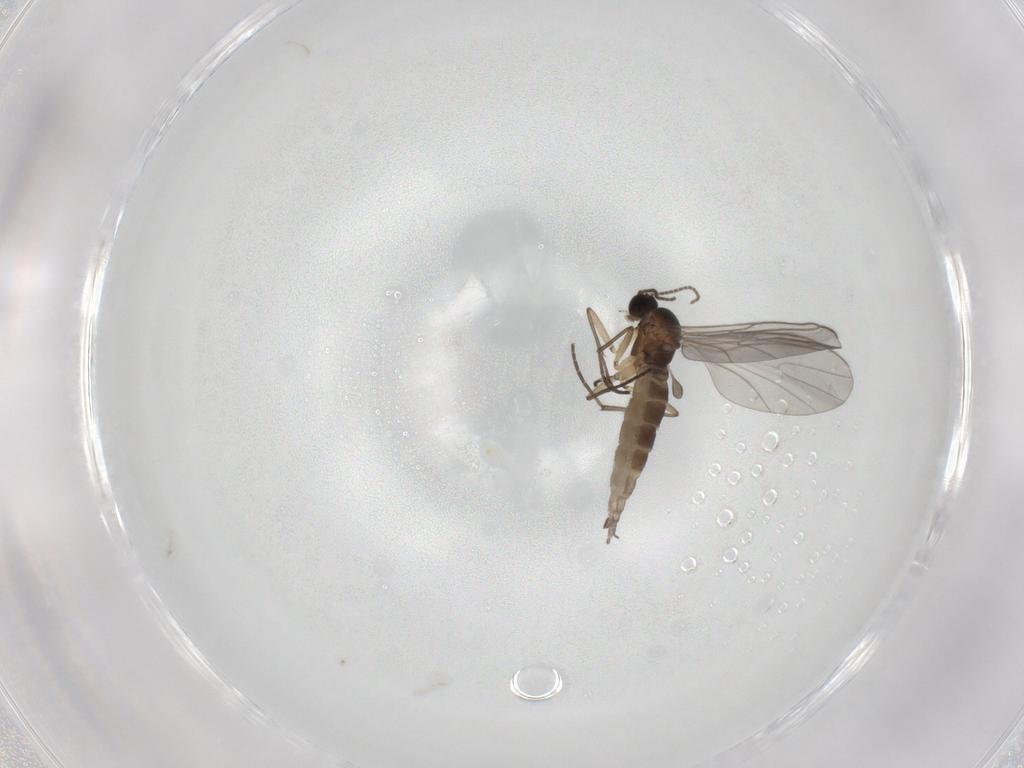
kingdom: Animalia
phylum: Arthropoda
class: Insecta
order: Diptera
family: Sciaridae
